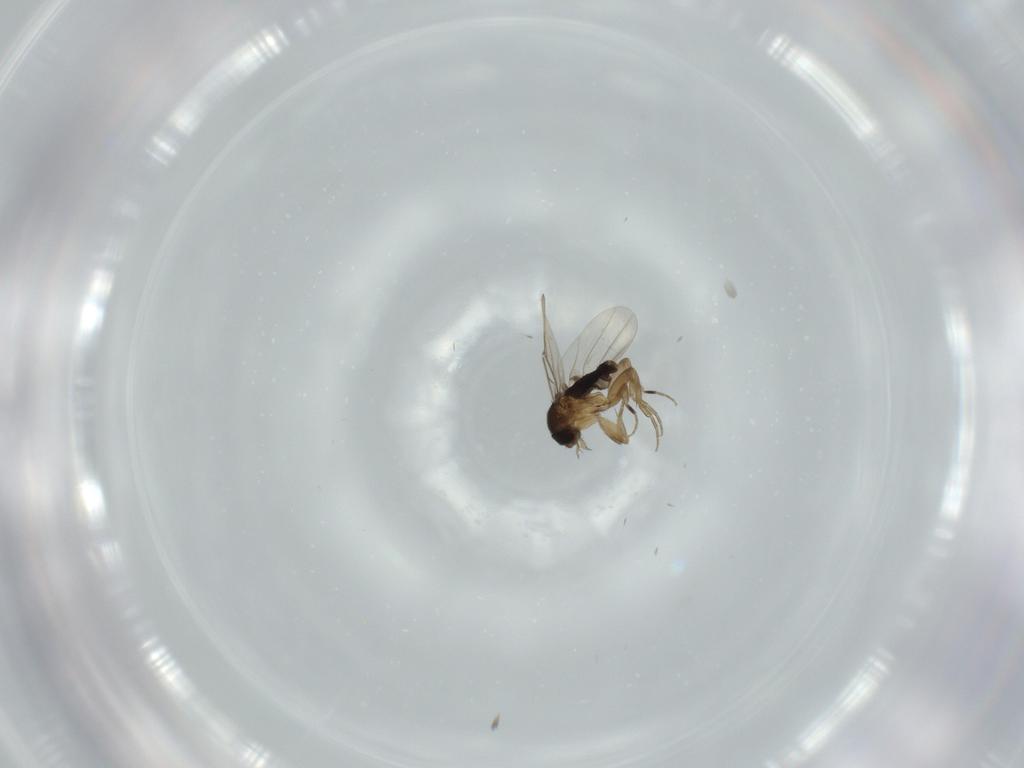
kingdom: Animalia
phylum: Arthropoda
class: Insecta
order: Diptera
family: Phoridae
